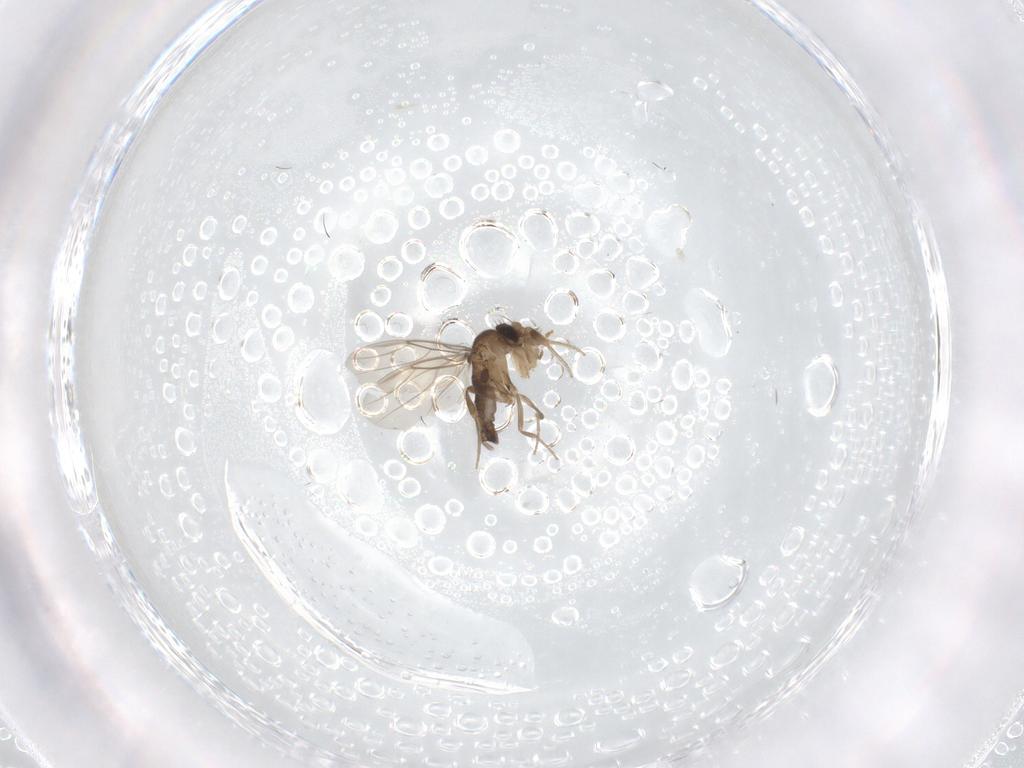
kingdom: Animalia
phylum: Arthropoda
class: Insecta
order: Diptera
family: Phoridae
